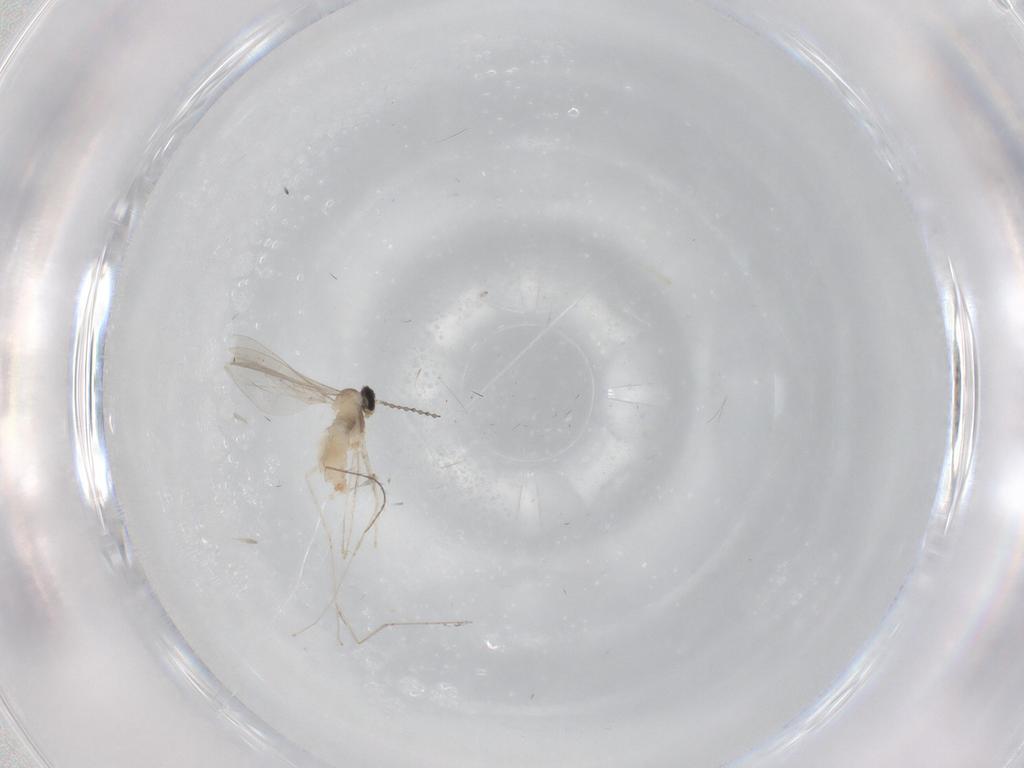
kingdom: Animalia
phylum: Arthropoda
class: Insecta
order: Diptera
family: Cecidomyiidae
